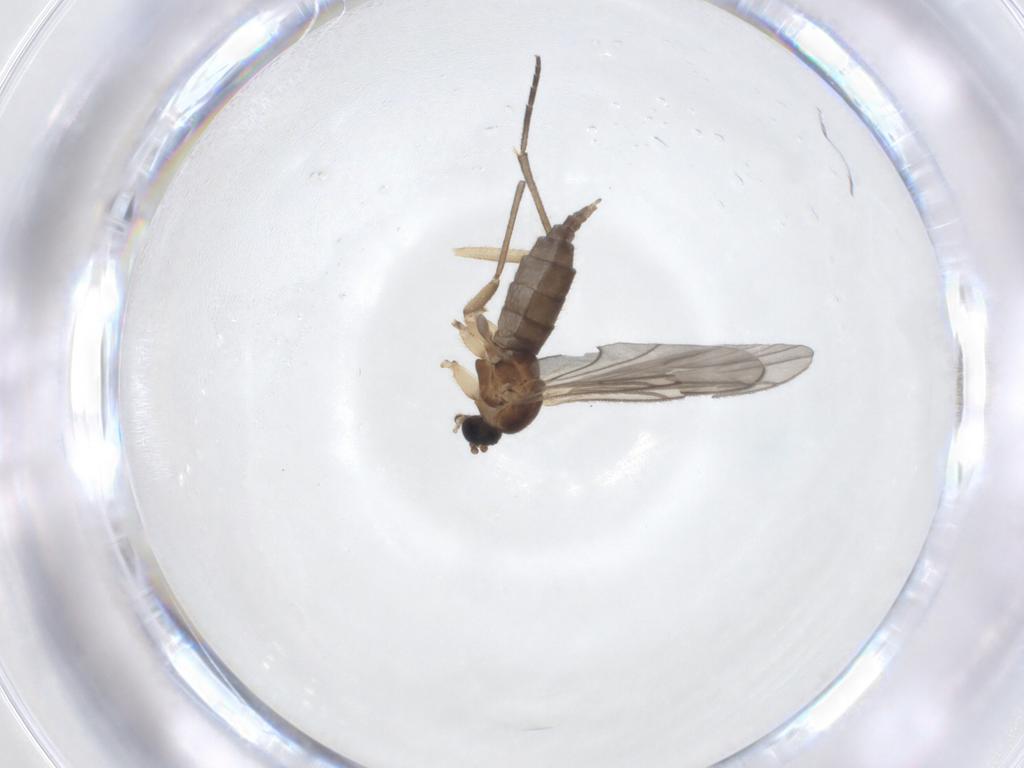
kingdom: Animalia
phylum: Arthropoda
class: Insecta
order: Diptera
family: Sciaridae
